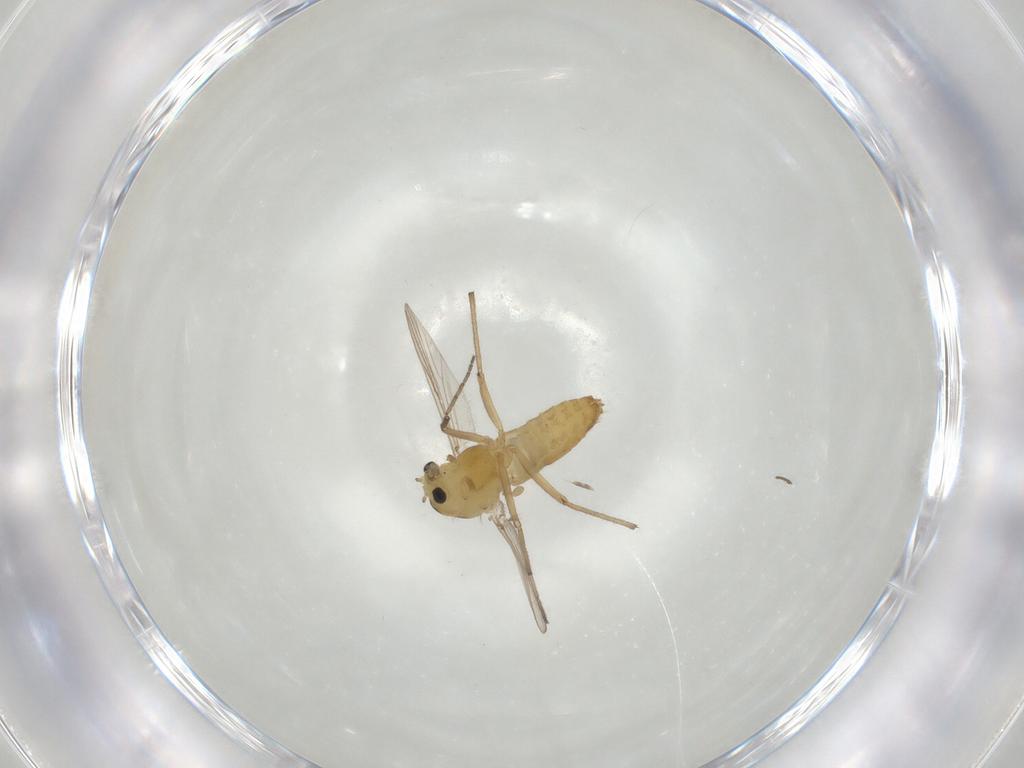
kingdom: Animalia
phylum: Arthropoda
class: Insecta
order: Diptera
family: Chironomidae
